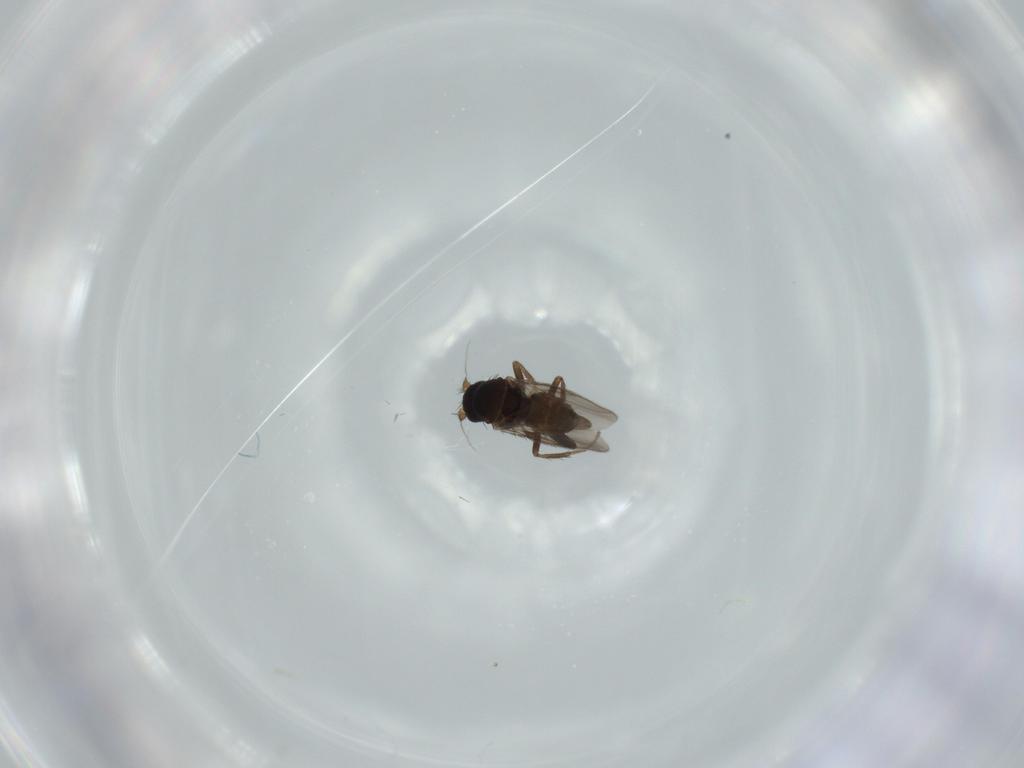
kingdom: Animalia
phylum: Arthropoda
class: Insecta
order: Diptera
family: Sphaeroceridae
